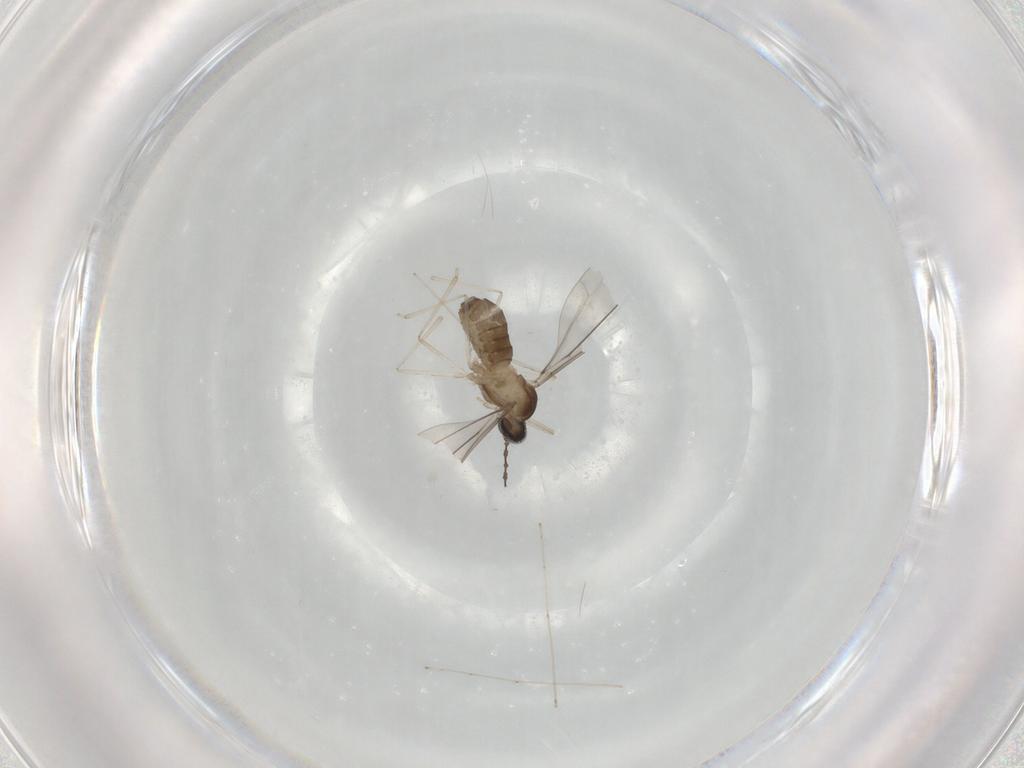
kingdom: Animalia
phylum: Arthropoda
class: Insecta
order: Diptera
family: Cecidomyiidae
